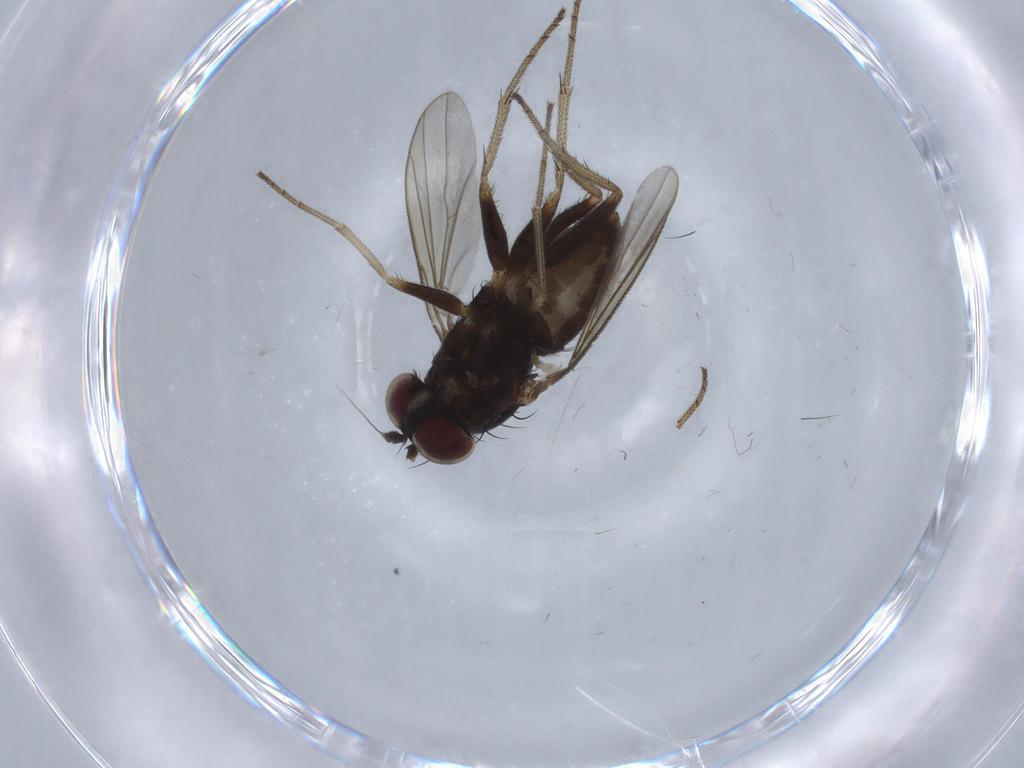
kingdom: Animalia
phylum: Arthropoda
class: Insecta
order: Diptera
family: Dolichopodidae
